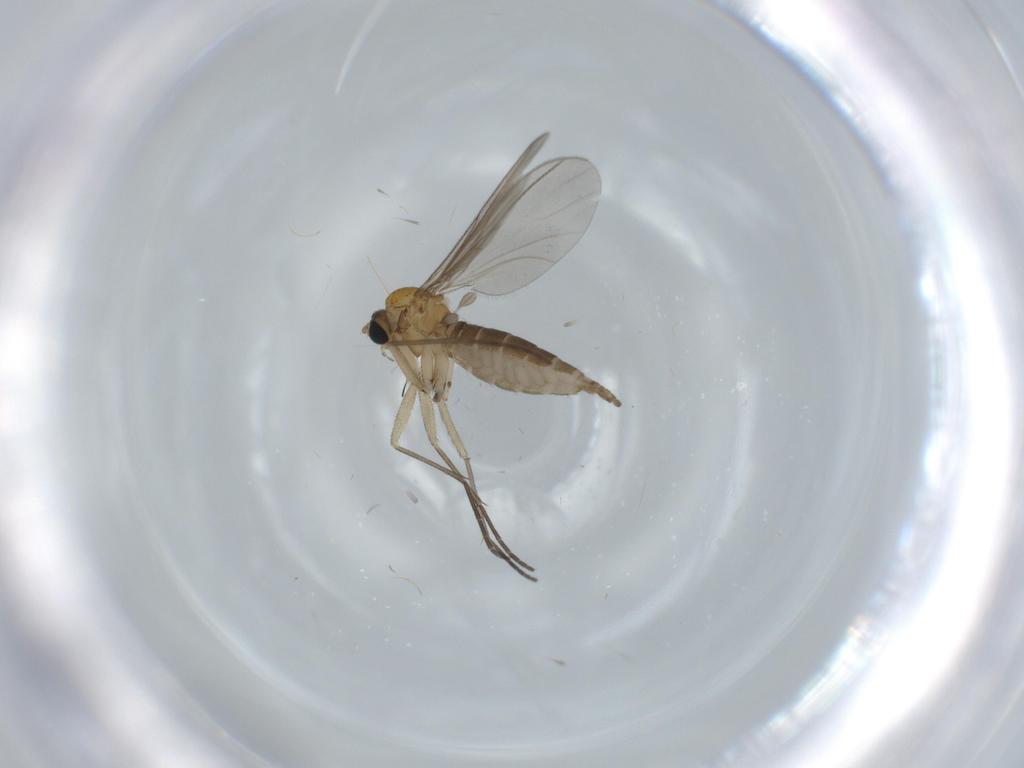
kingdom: Animalia
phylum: Arthropoda
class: Insecta
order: Diptera
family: Sciaridae
